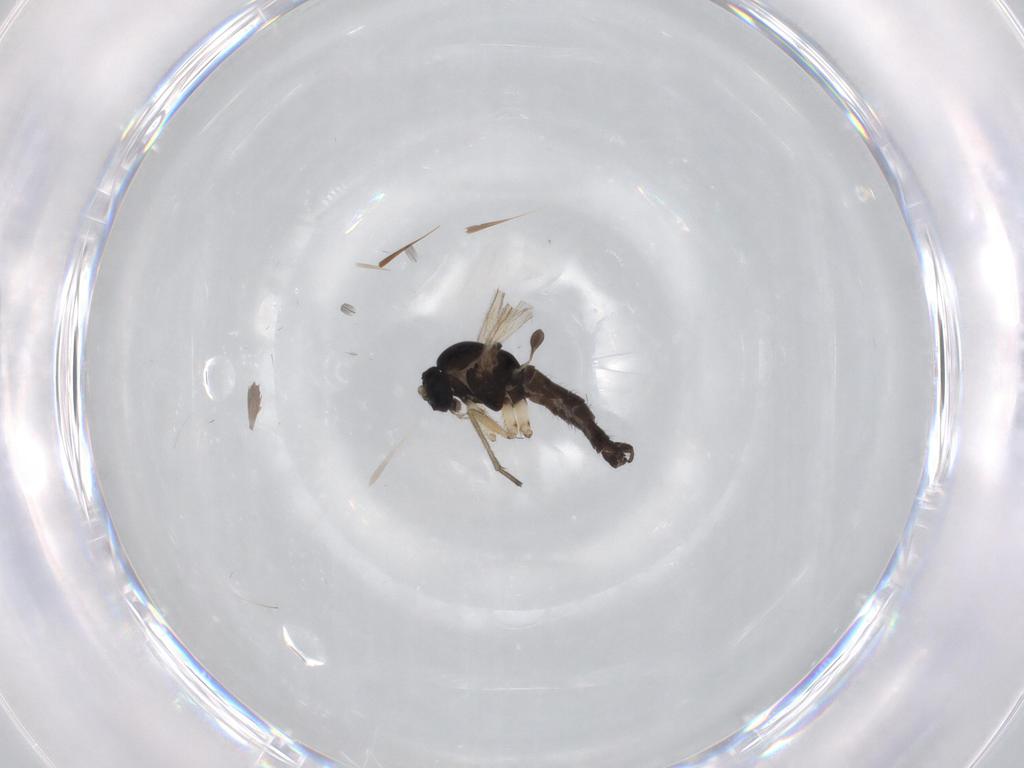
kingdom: Animalia
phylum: Arthropoda
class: Insecta
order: Diptera
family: Sciaridae
